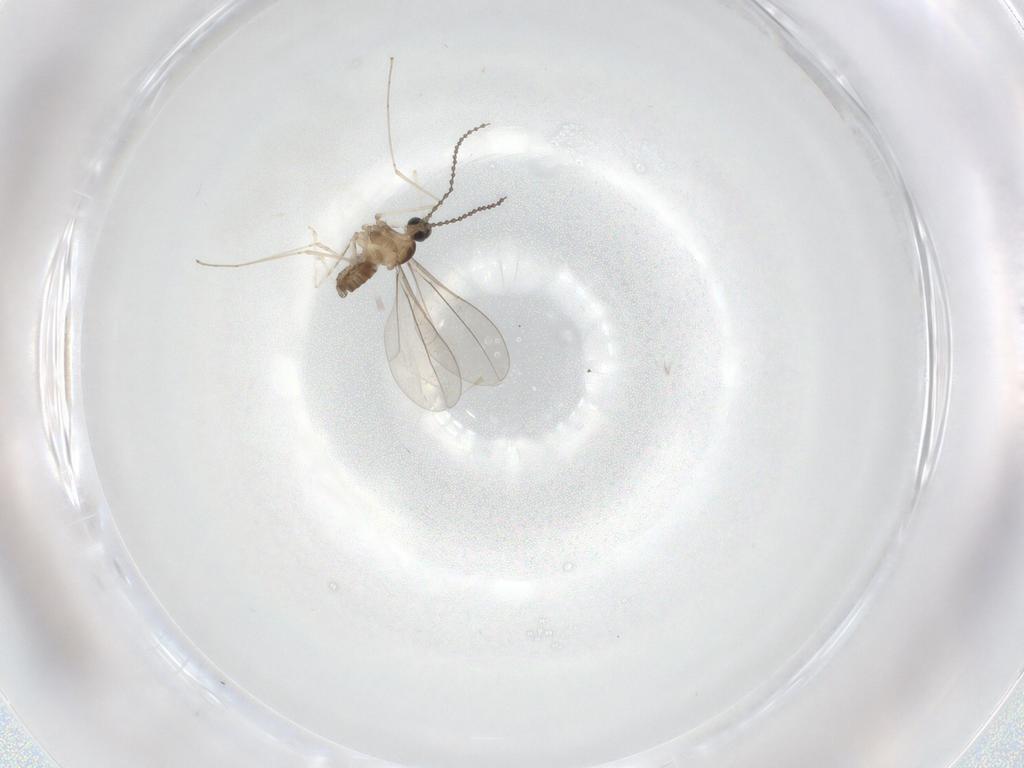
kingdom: Animalia
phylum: Arthropoda
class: Insecta
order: Diptera
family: Cecidomyiidae
